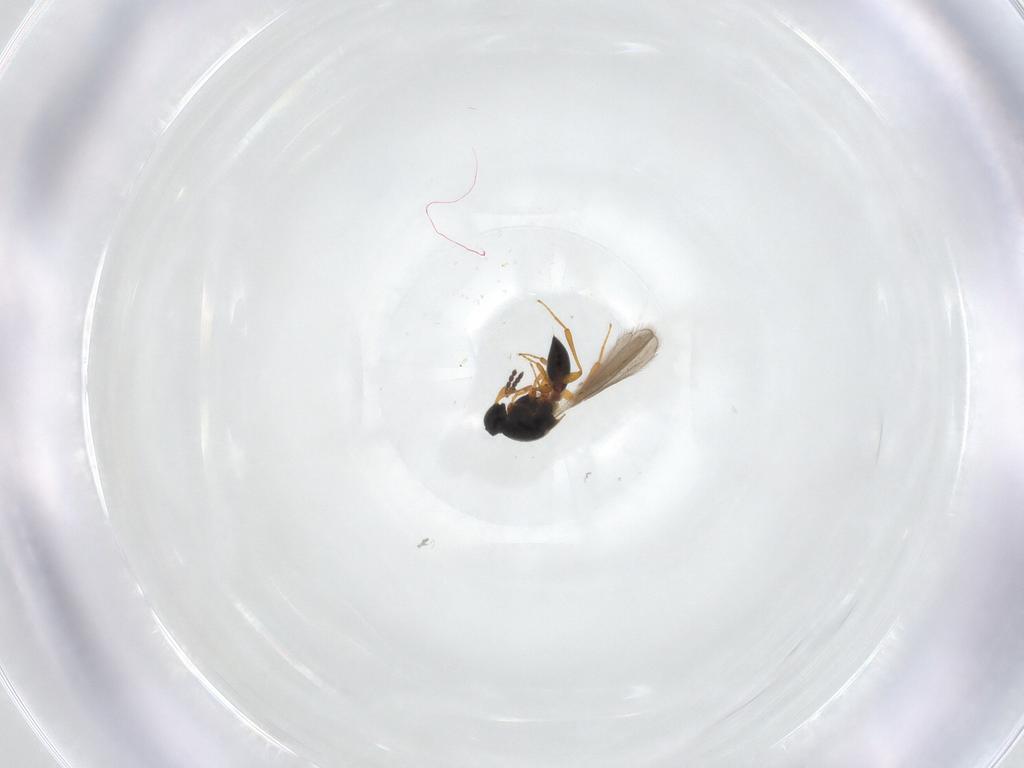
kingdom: Animalia
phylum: Arthropoda
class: Insecta
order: Hymenoptera
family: Platygastridae
